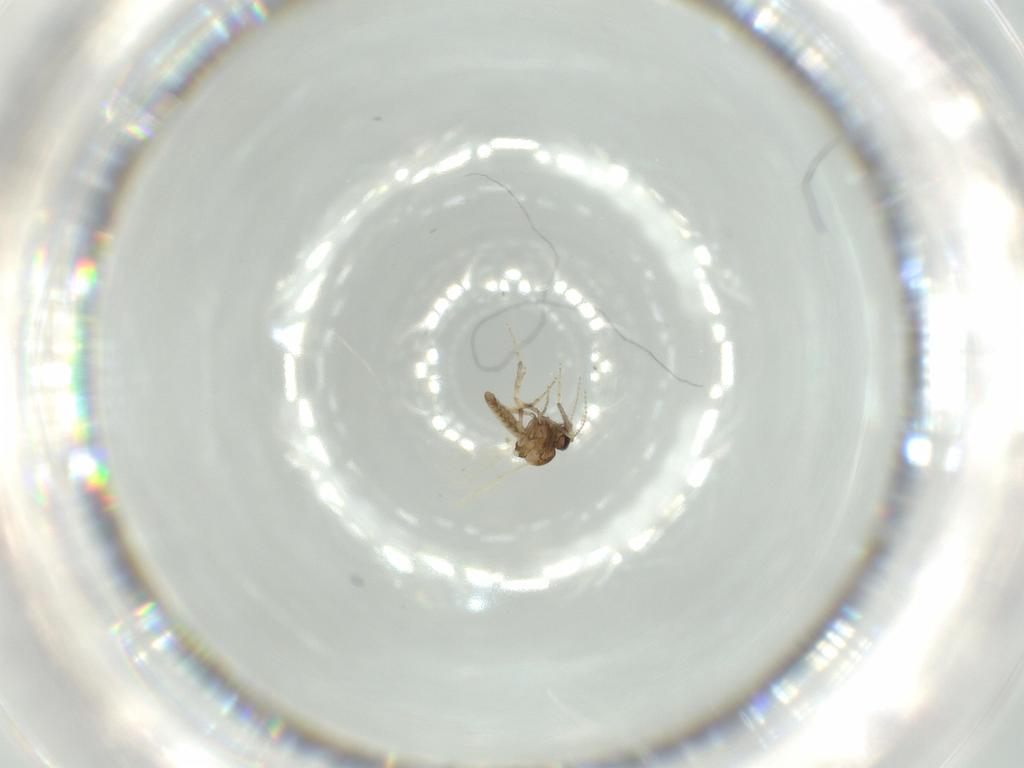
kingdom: Animalia
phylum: Arthropoda
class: Insecta
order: Diptera
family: Ceratopogonidae
